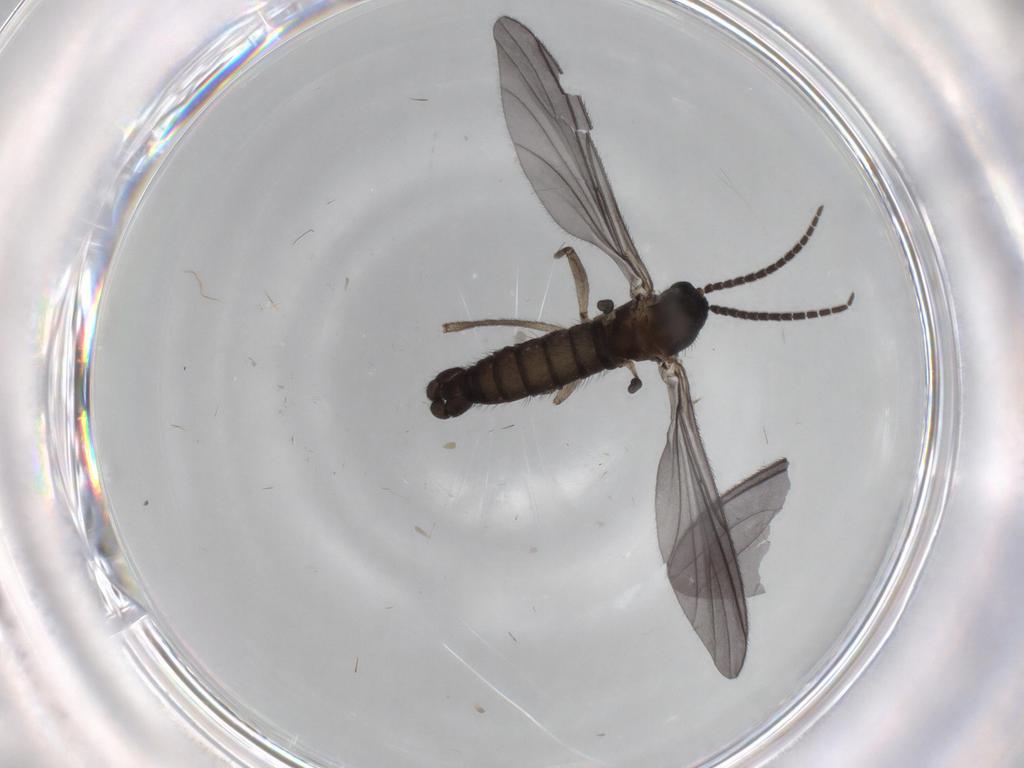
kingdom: Animalia
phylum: Arthropoda
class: Insecta
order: Diptera
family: Sciaridae
